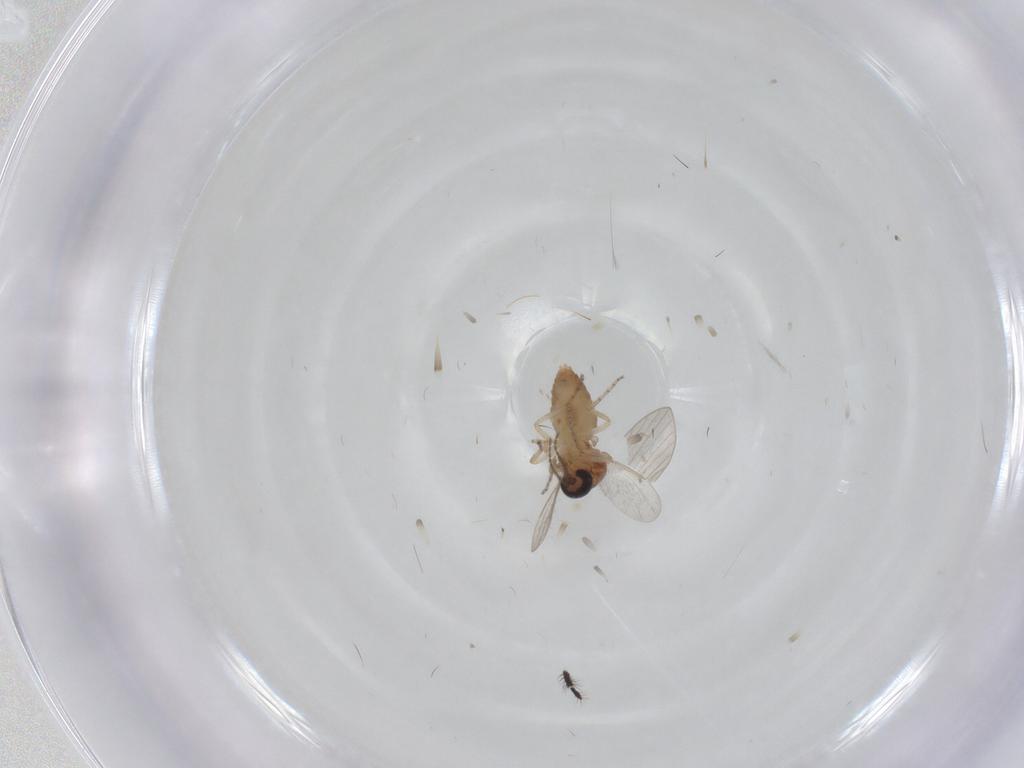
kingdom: Animalia
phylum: Arthropoda
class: Insecta
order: Diptera
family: Ceratopogonidae
